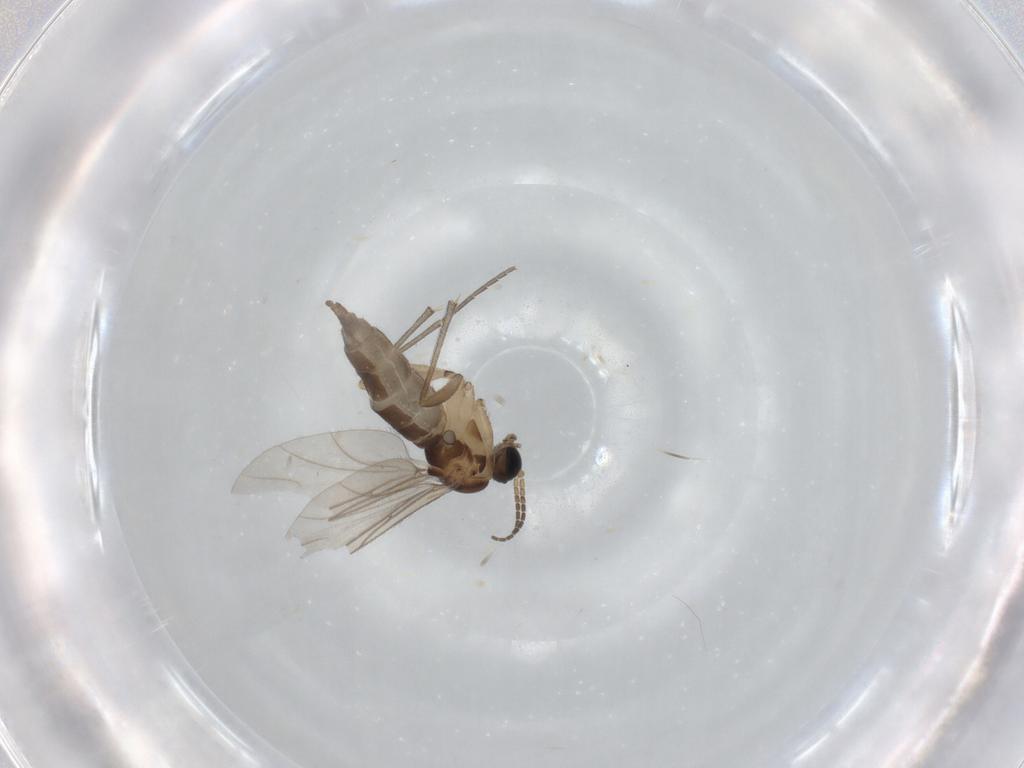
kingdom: Animalia
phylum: Arthropoda
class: Insecta
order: Diptera
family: Sciaridae
